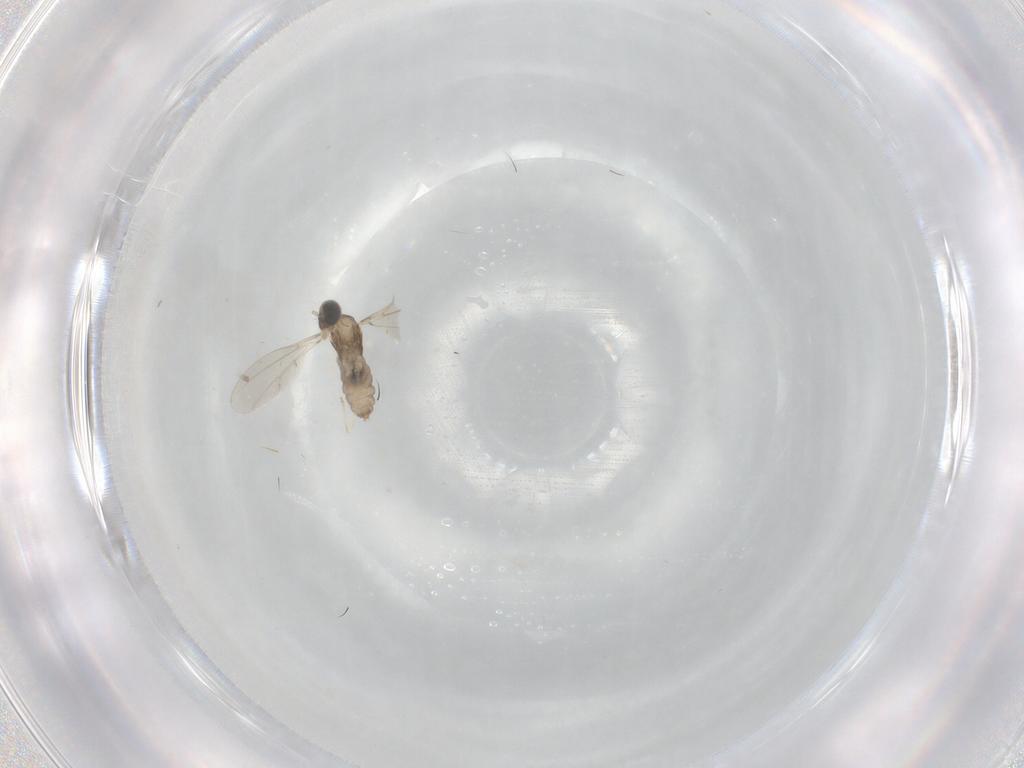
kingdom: Animalia
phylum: Arthropoda
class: Insecta
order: Diptera
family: Cecidomyiidae
